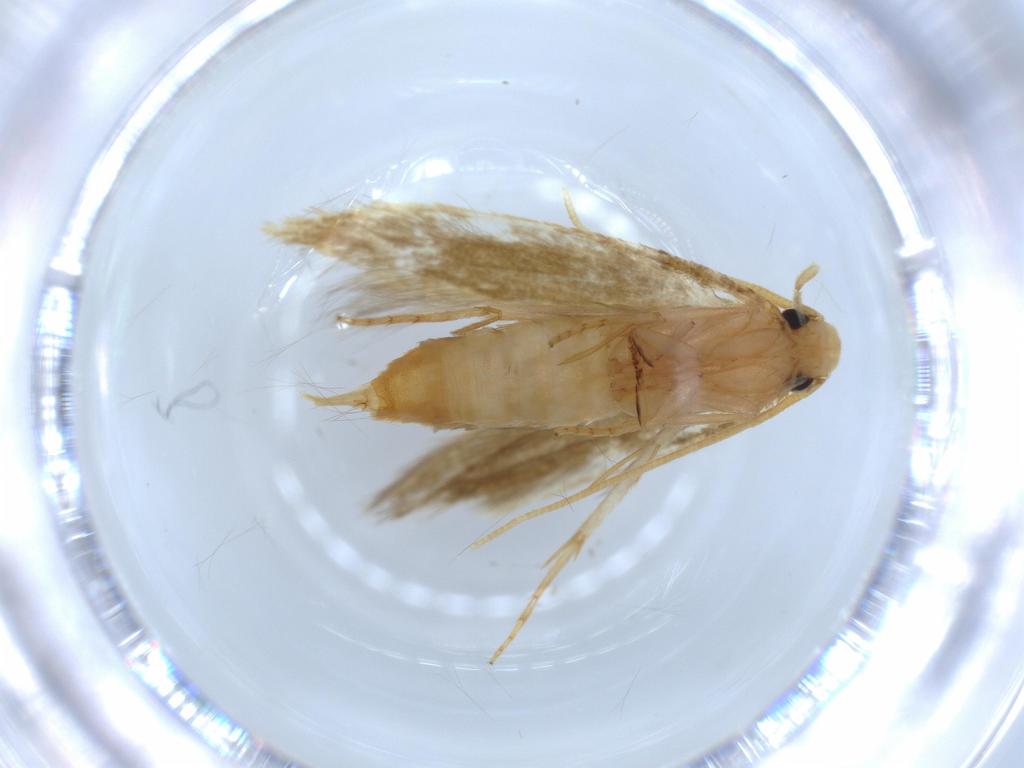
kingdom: Animalia
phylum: Arthropoda
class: Insecta
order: Lepidoptera
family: Tineidae
